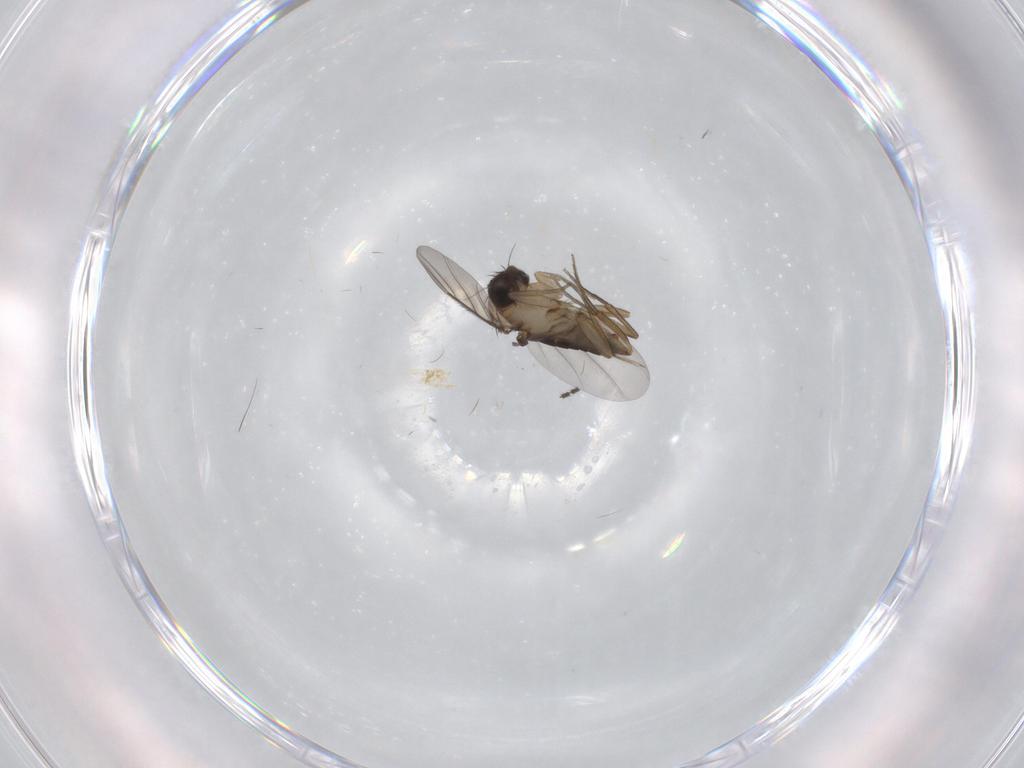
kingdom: Animalia
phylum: Arthropoda
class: Insecta
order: Diptera
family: Phoridae
